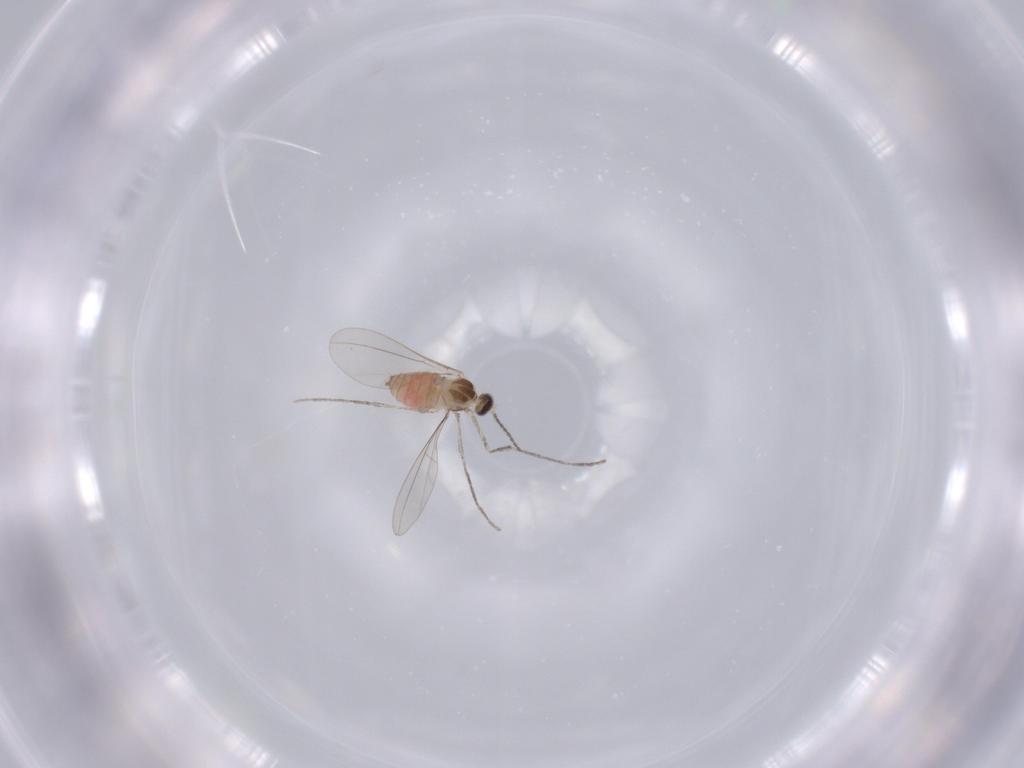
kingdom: Animalia
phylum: Arthropoda
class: Insecta
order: Diptera
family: Cecidomyiidae
